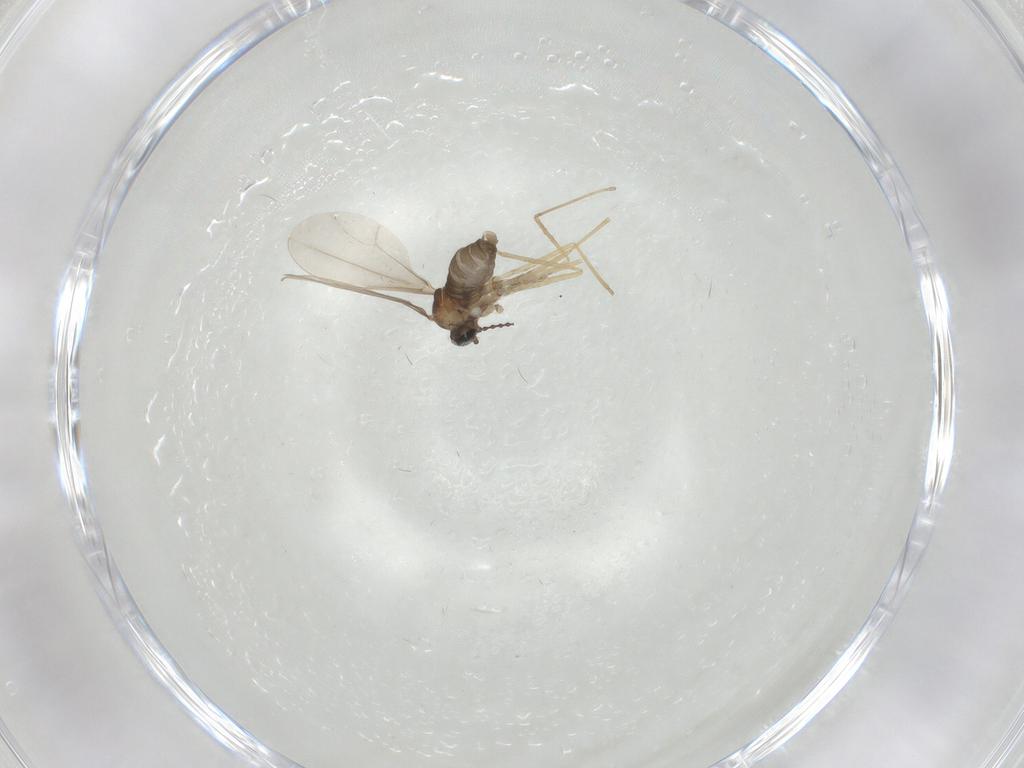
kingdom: Animalia
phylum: Arthropoda
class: Insecta
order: Diptera
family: Cecidomyiidae
